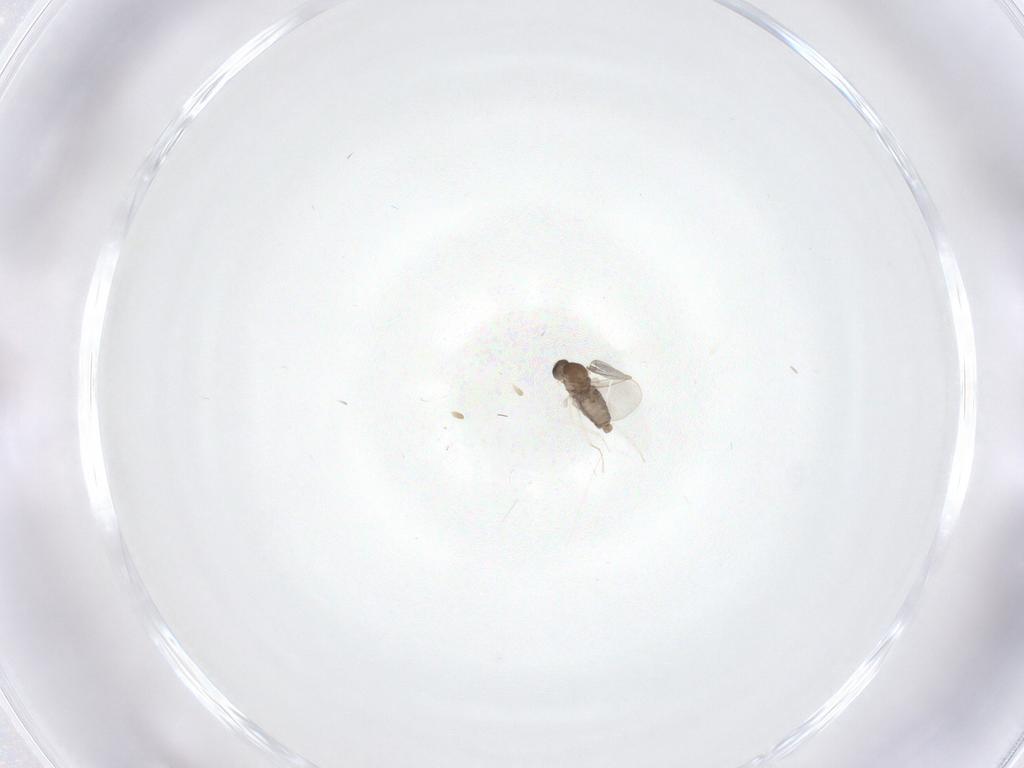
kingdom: Animalia
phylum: Arthropoda
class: Insecta
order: Diptera
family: Cecidomyiidae
